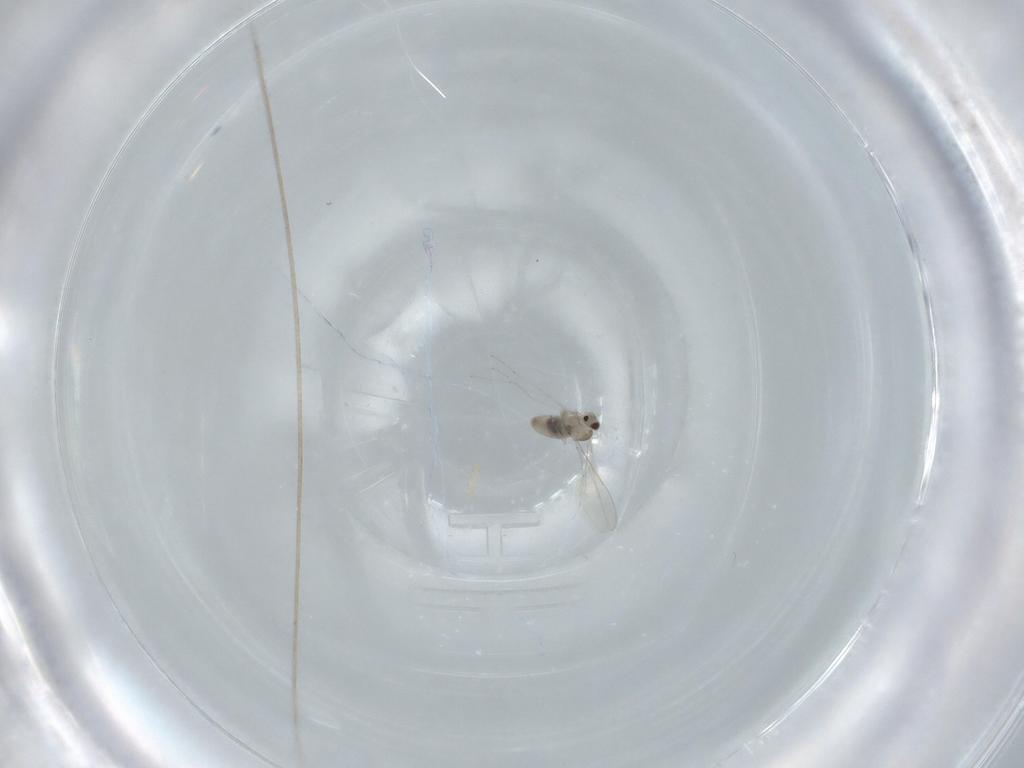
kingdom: Animalia
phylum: Arthropoda
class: Insecta
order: Diptera
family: Cecidomyiidae
